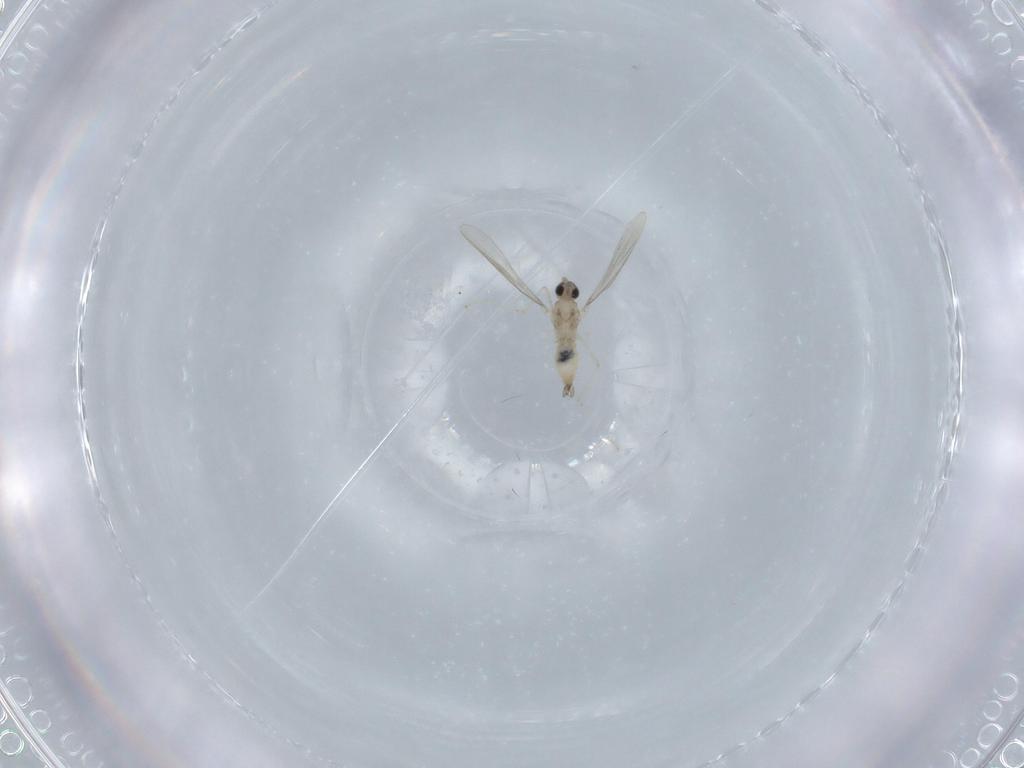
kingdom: Animalia
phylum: Arthropoda
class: Insecta
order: Diptera
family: Cecidomyiidae
